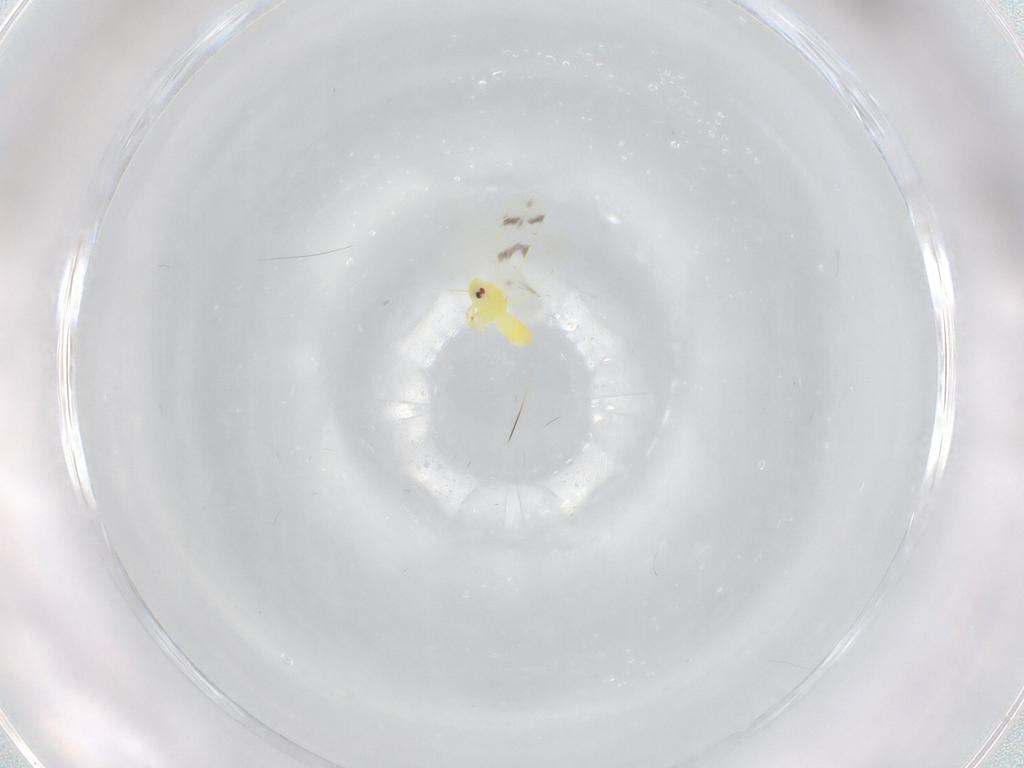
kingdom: Animalia
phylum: Arthropoda
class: Insecta
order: Hemiptera
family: Aleyrodidae
